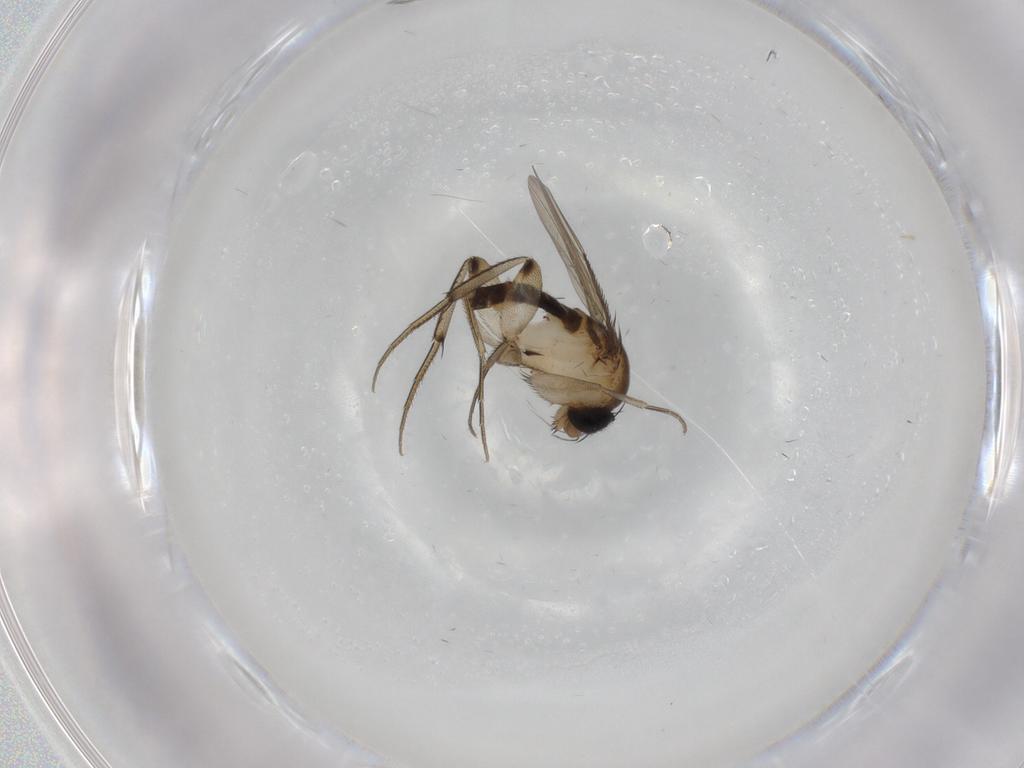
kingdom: Animalia
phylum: Arthropoda
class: Insecta
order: Diptera
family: Phoridae
